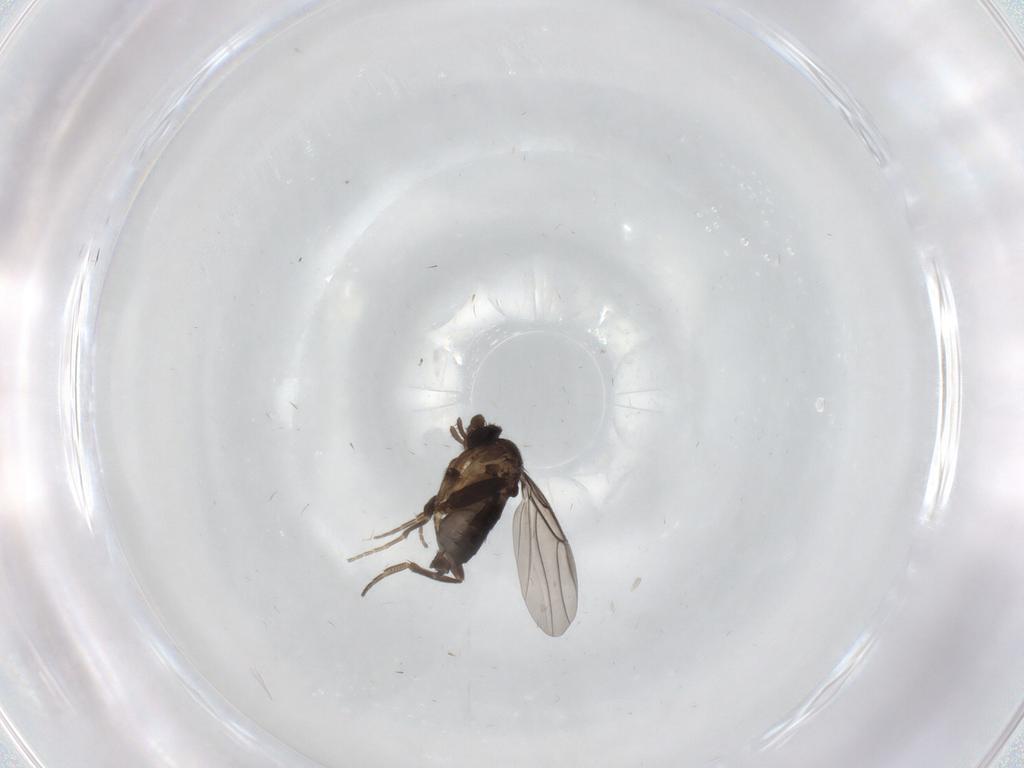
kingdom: Animalia
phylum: Arthropoda
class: Insecta
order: Diptera
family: Phoridae
